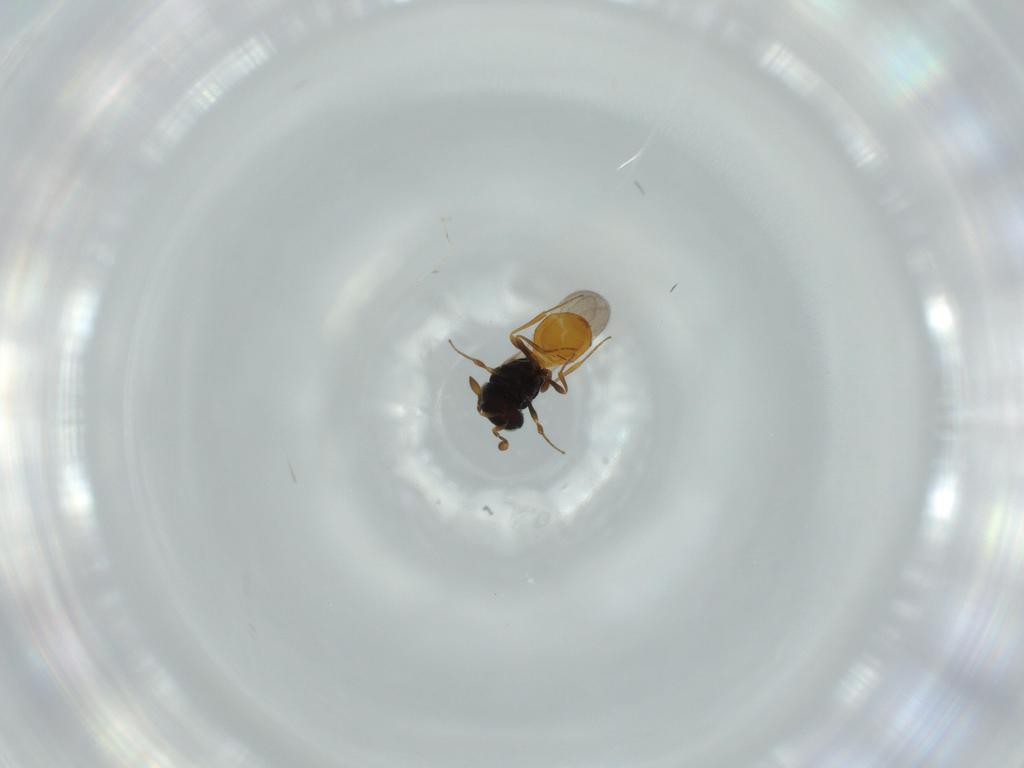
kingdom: Animalia
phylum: Arthropoda
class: Insecta
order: Hymenoptera
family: Scelionidae
